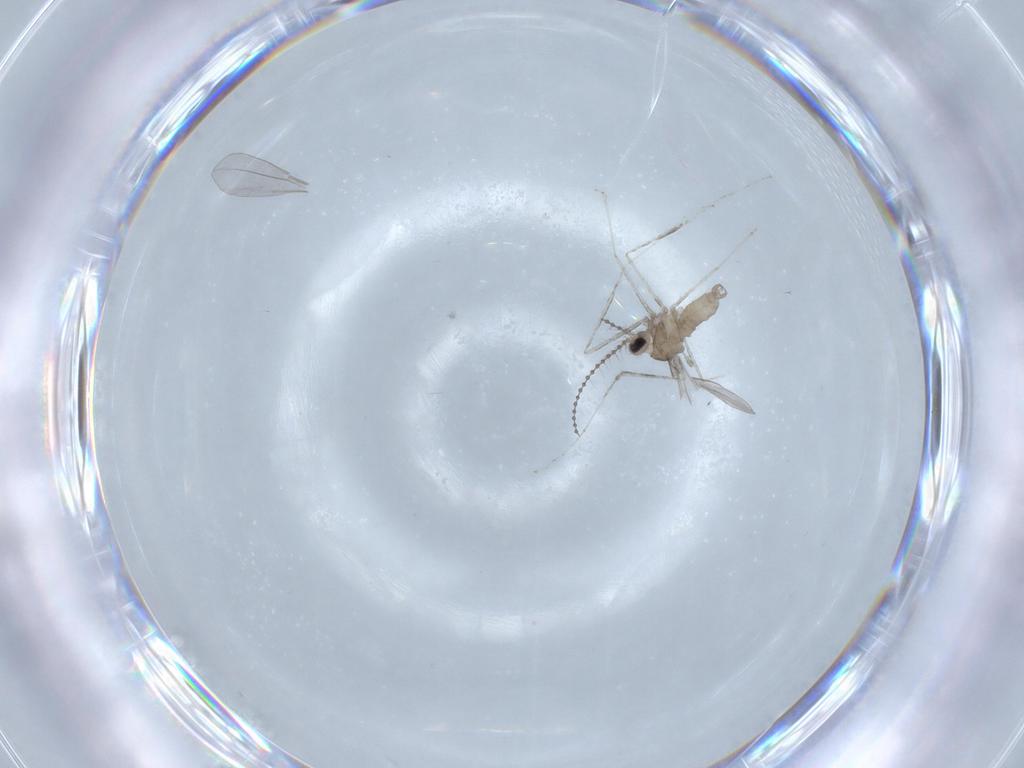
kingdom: Animalia
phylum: Arthropoda
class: Insecta
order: Diptera
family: Cecidomyiidae
